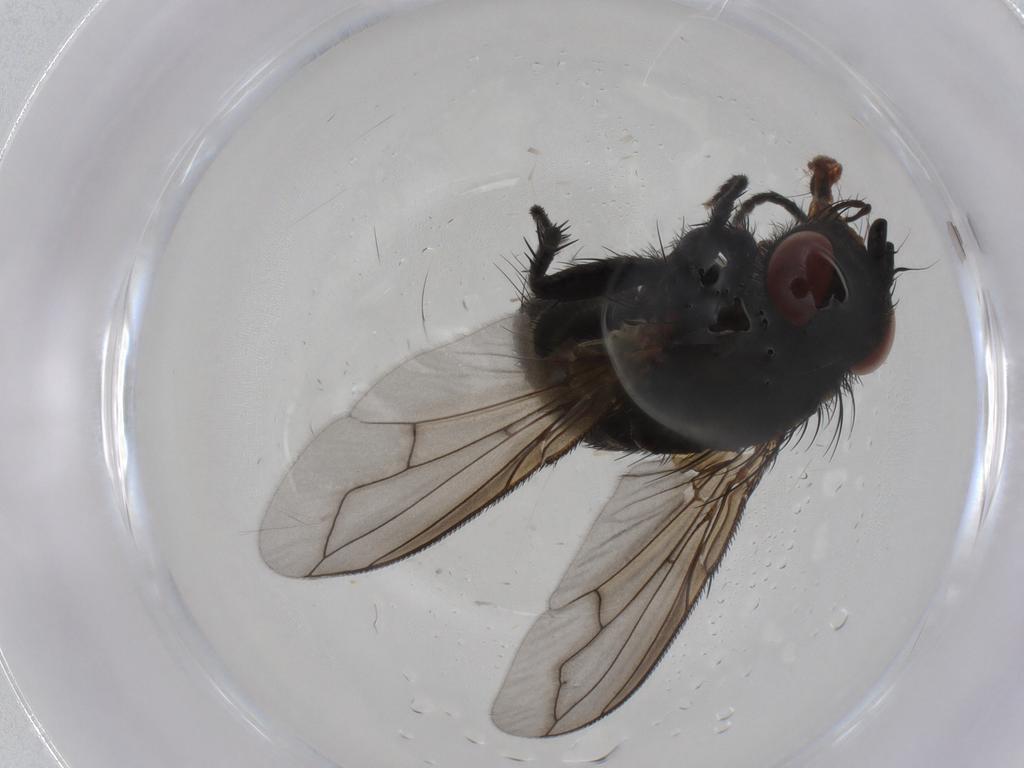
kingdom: Animalia
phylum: Arthropoda
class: Insecta
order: Diptera
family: Tachinidae
